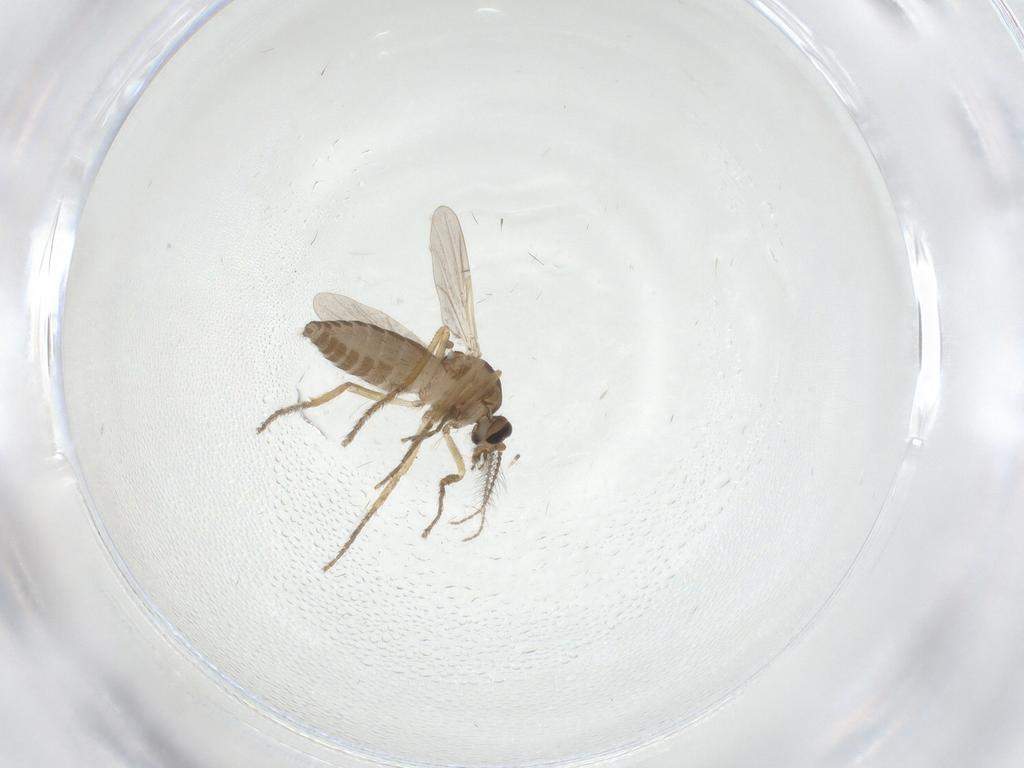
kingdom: Animalia
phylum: Arthropoda
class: Insecta
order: Diptera
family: Ceratopogonidae
